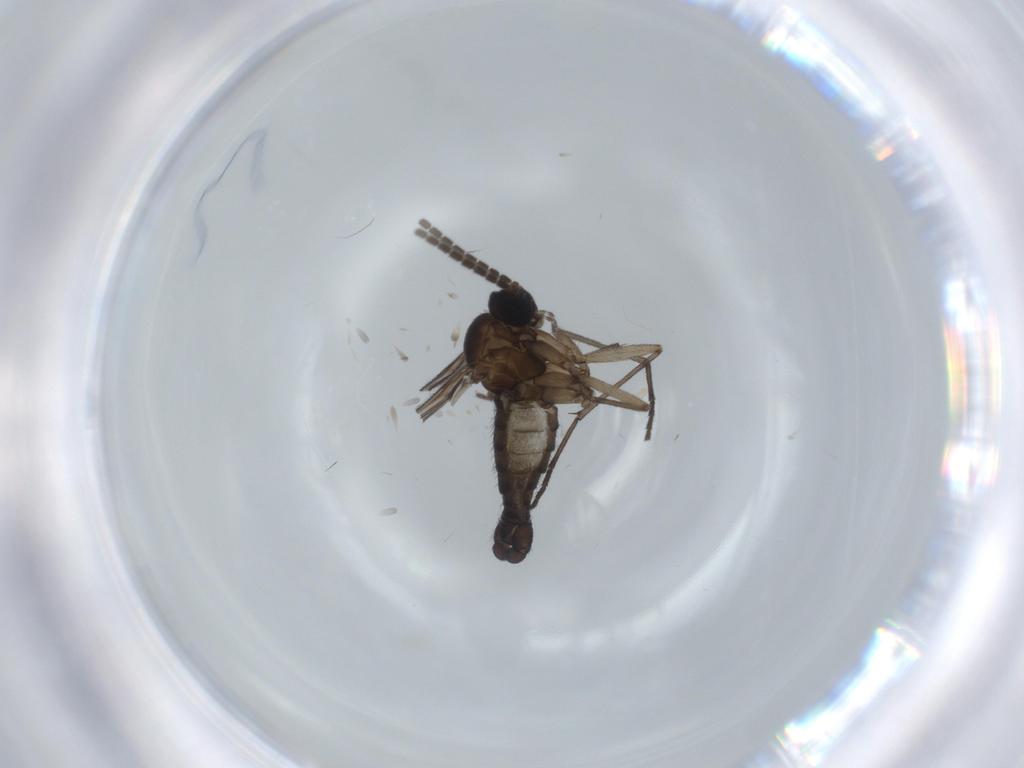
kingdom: Animalia
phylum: Arthropoda
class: Insecta
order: Diptera
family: Sciaridae
